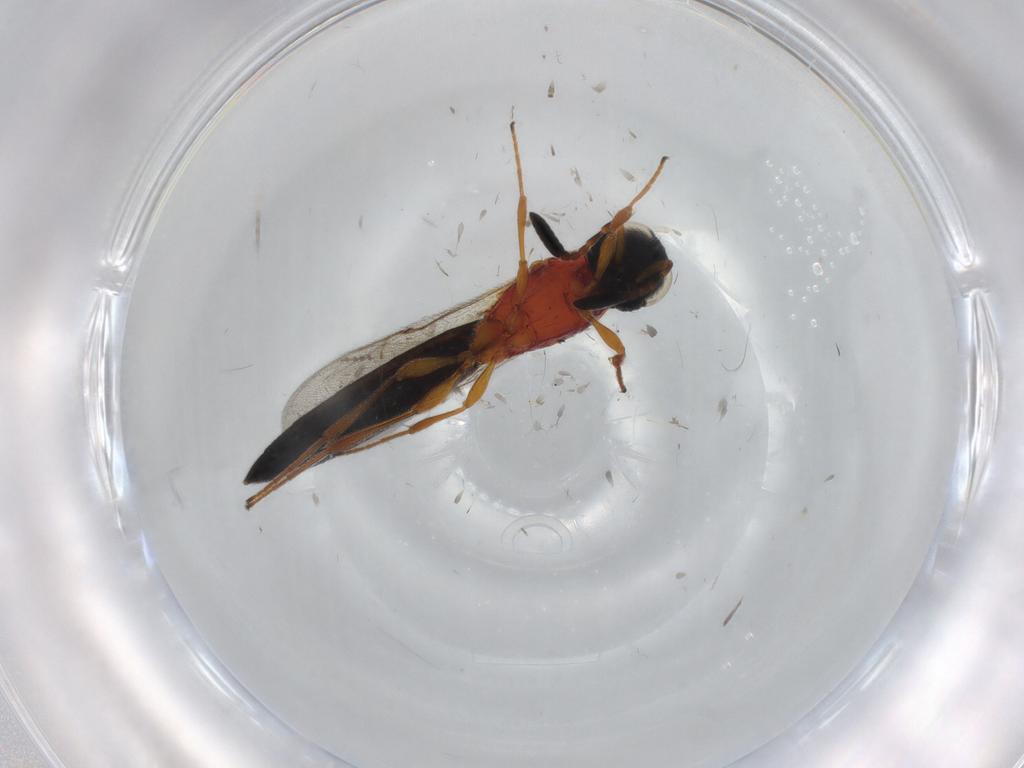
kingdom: Animalia
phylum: Arthropoda
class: Insecta
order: Hymenoptera
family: Scelionidae
